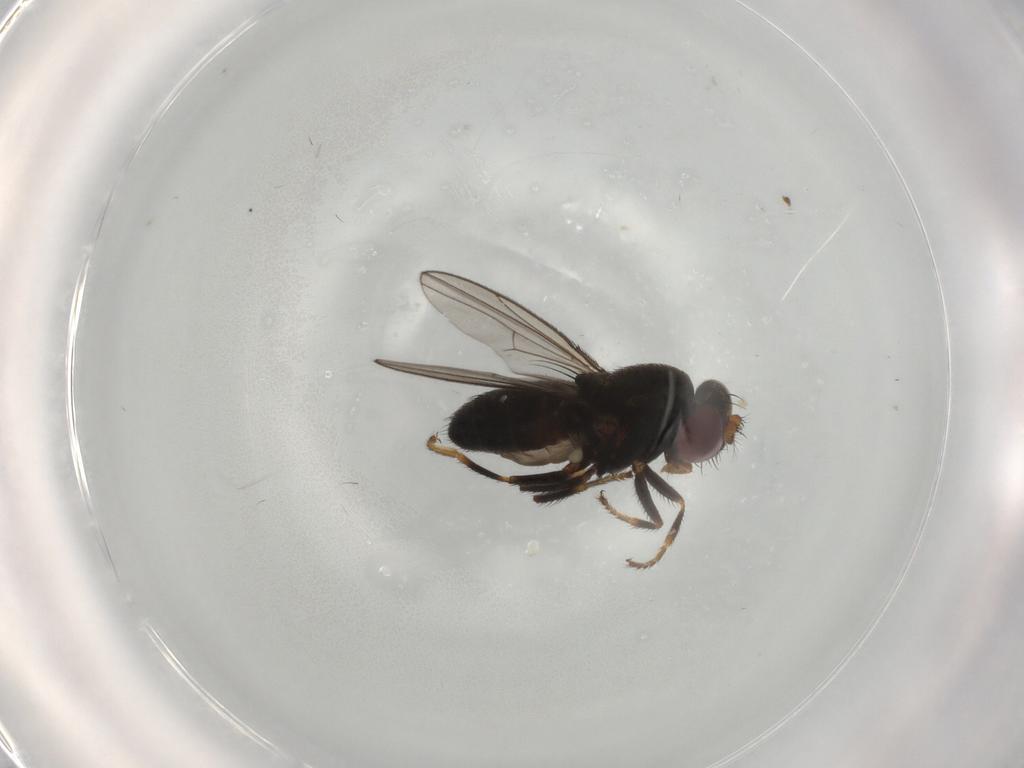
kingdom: Animalia
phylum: Arthropoda
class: Insecta
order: Diptera
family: Ephydridae
